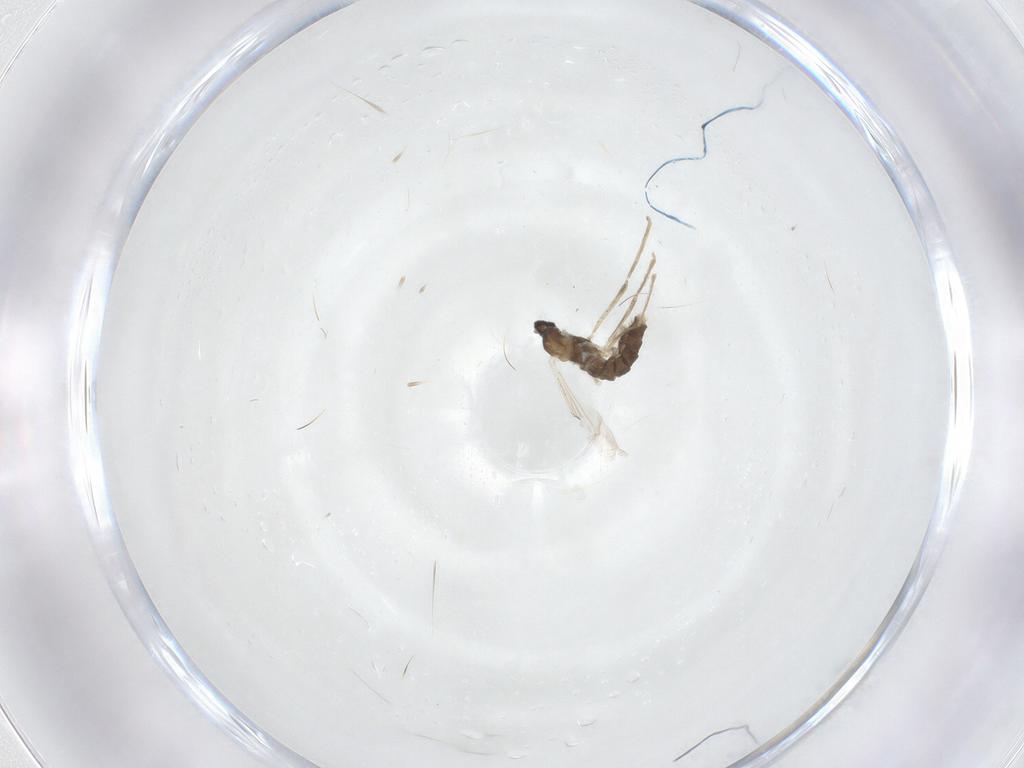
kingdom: Animalia
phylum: Arthropoda
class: Insecta
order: Diptera
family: Cecidomyiidae
